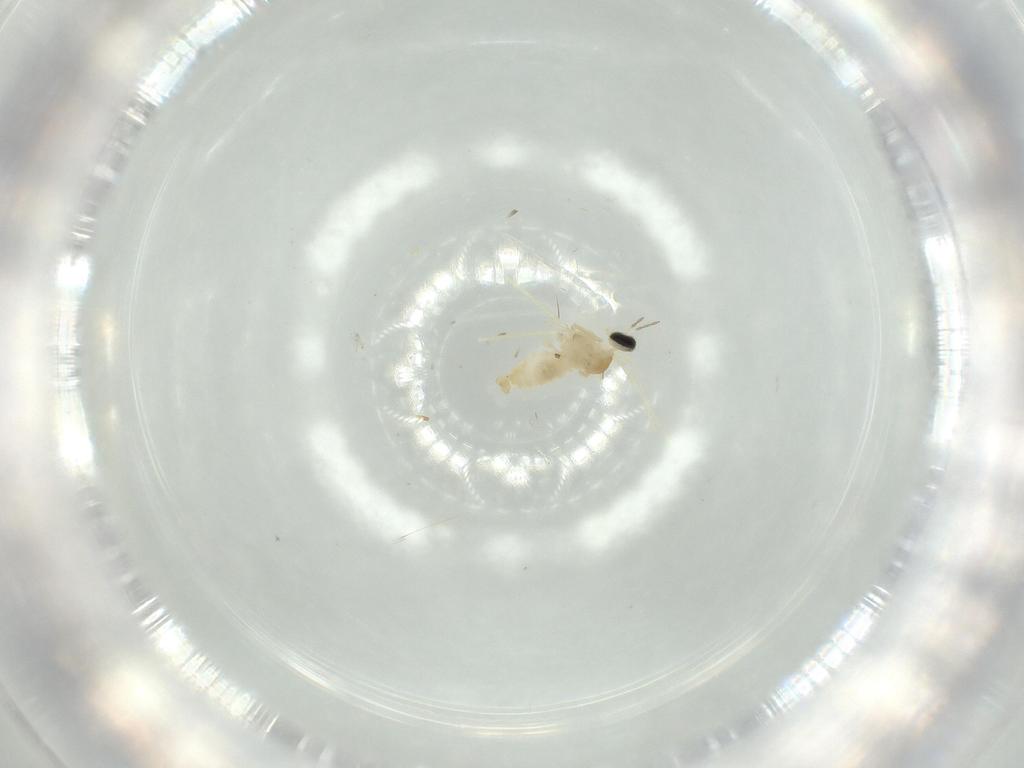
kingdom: Animalia
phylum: Arthropoda
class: Insecta
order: Diptera
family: Cecidomyiidae
